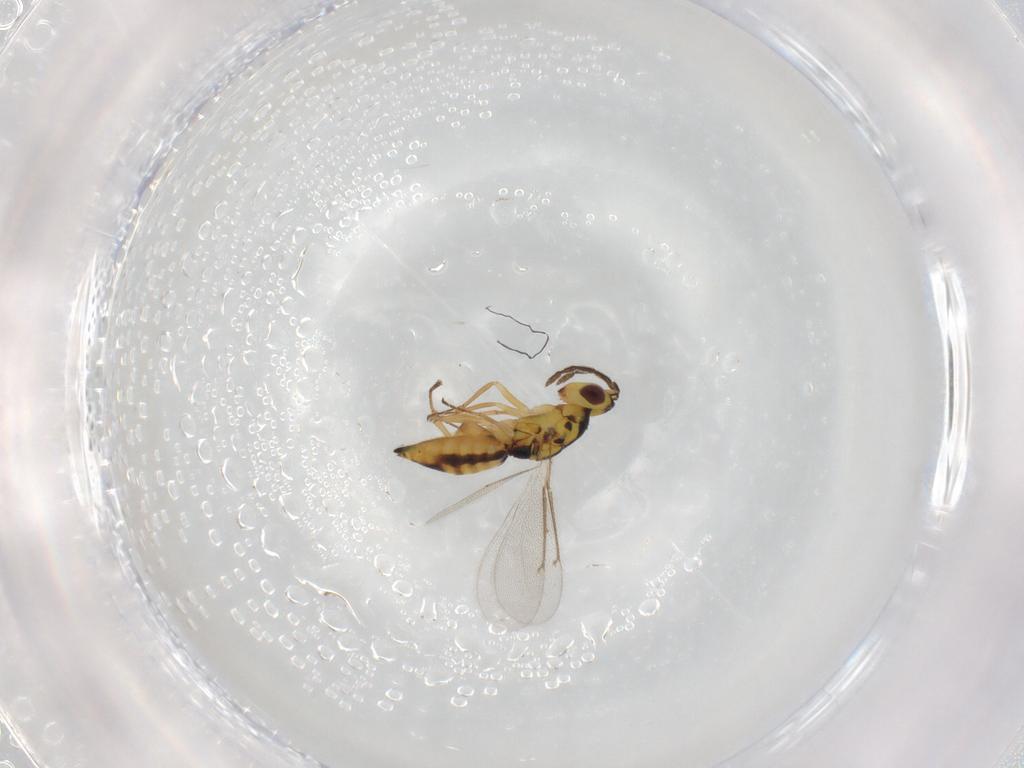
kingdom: Animalia
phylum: Arthropoda
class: Insecta
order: Hymenoptera
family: Eulophidae
